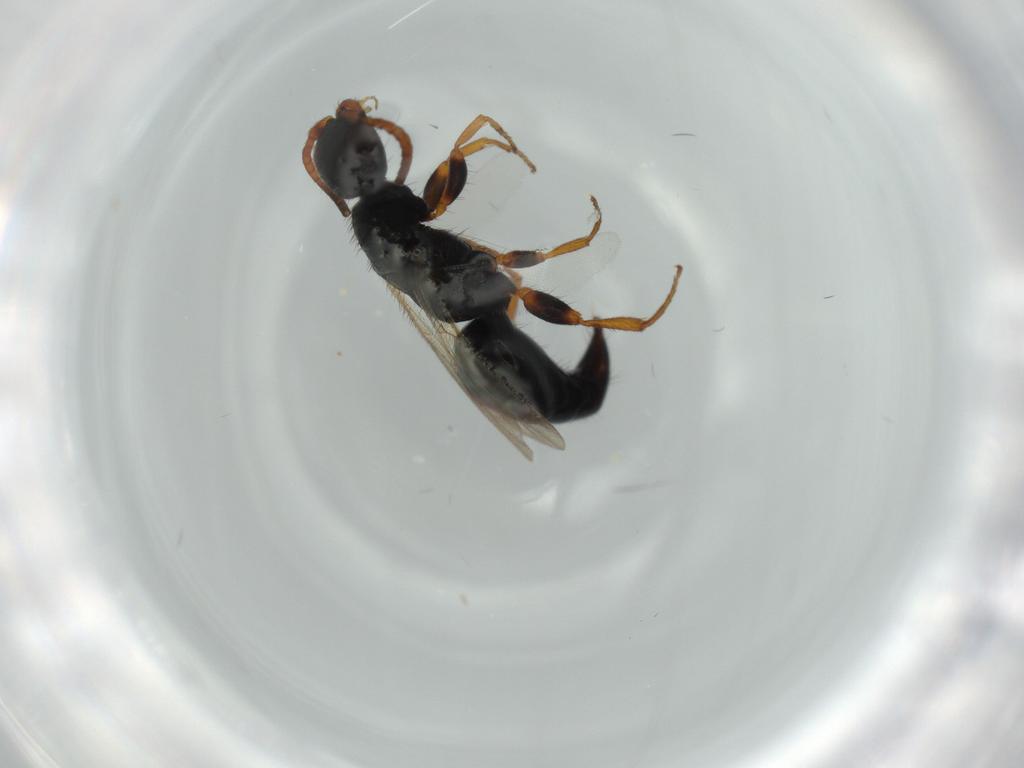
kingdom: Animalia
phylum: Arthropoda
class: Insecta
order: Hymenoptera
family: Bethylidae
